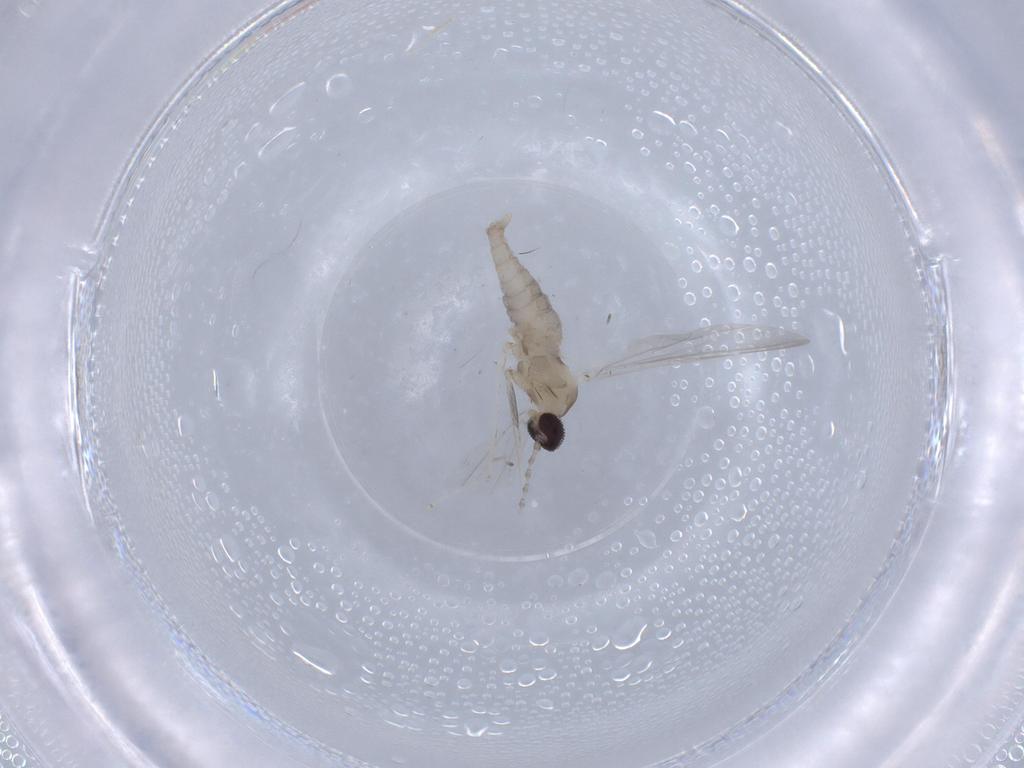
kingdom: Animalia
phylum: Arthropoda
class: Insecta
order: Diptera
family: Cecidomyiidae
